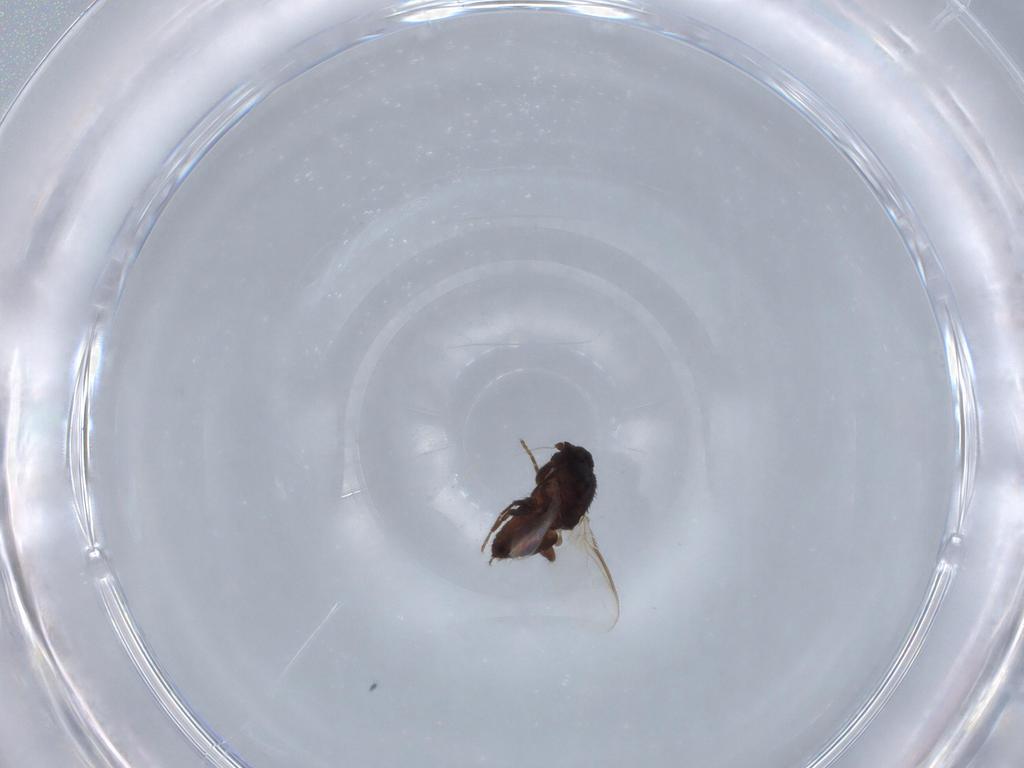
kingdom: Animalia
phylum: Arthropoda
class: Insecta
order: Diptera
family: Sphaeroceridae
